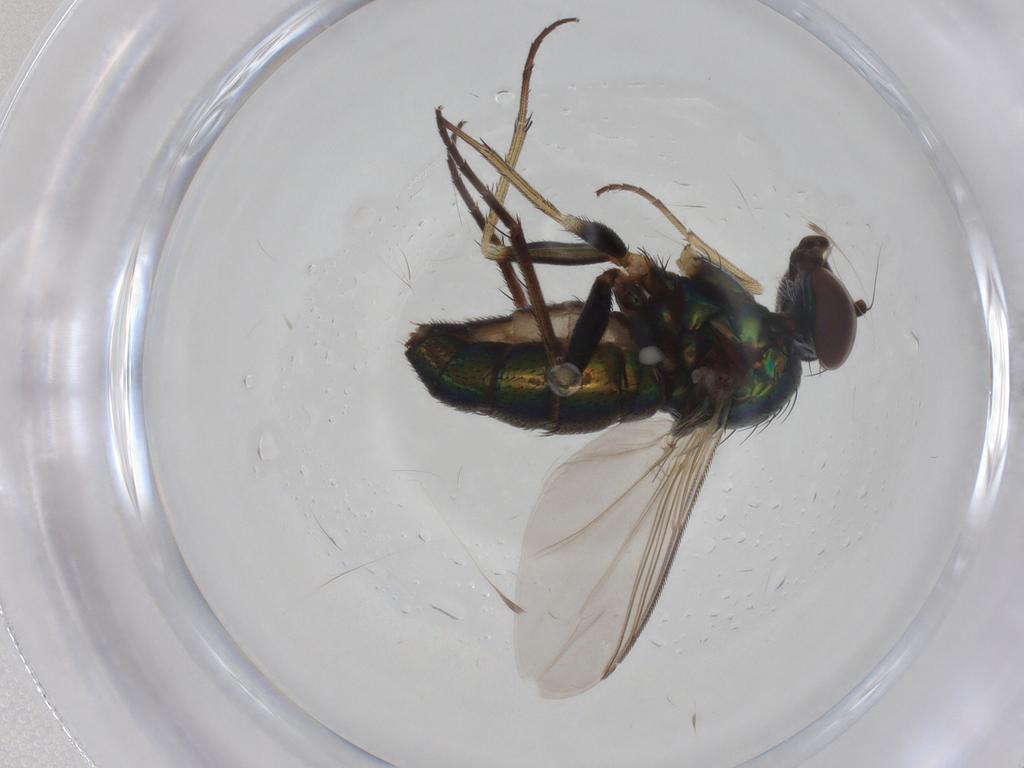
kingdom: Animalia
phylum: Arthropoda
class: Insecta
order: Diptera
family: Dolichopodidae
